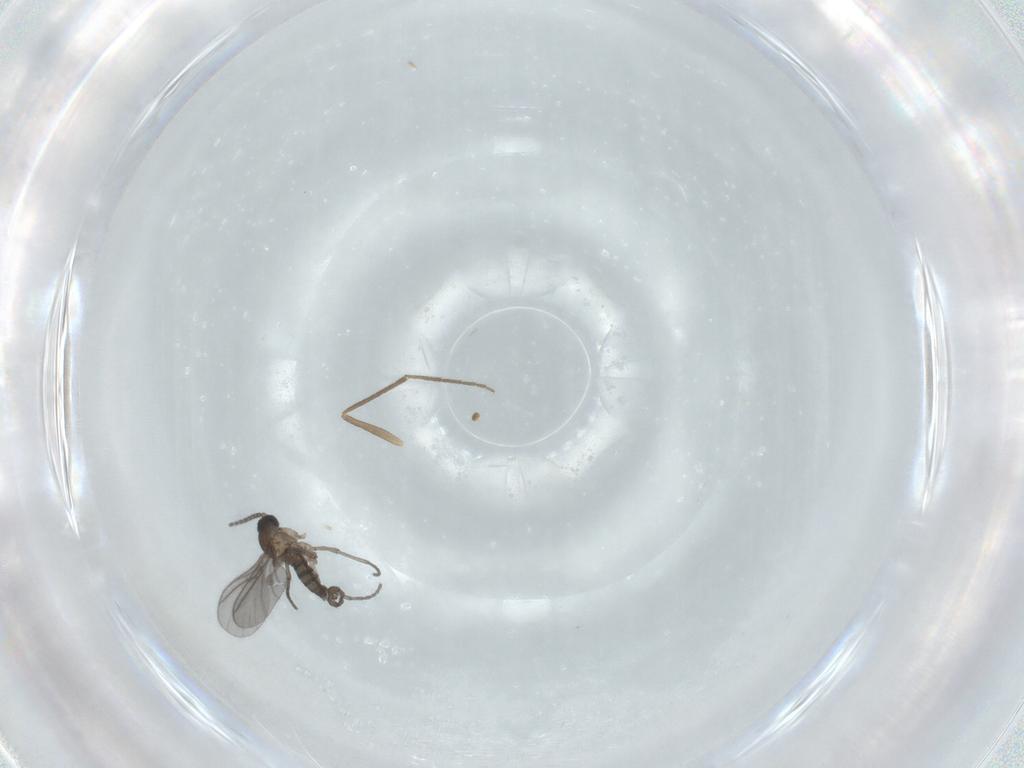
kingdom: Animalia
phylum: Arthropoda
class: Insecta
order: Diptera
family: Sciaridae
